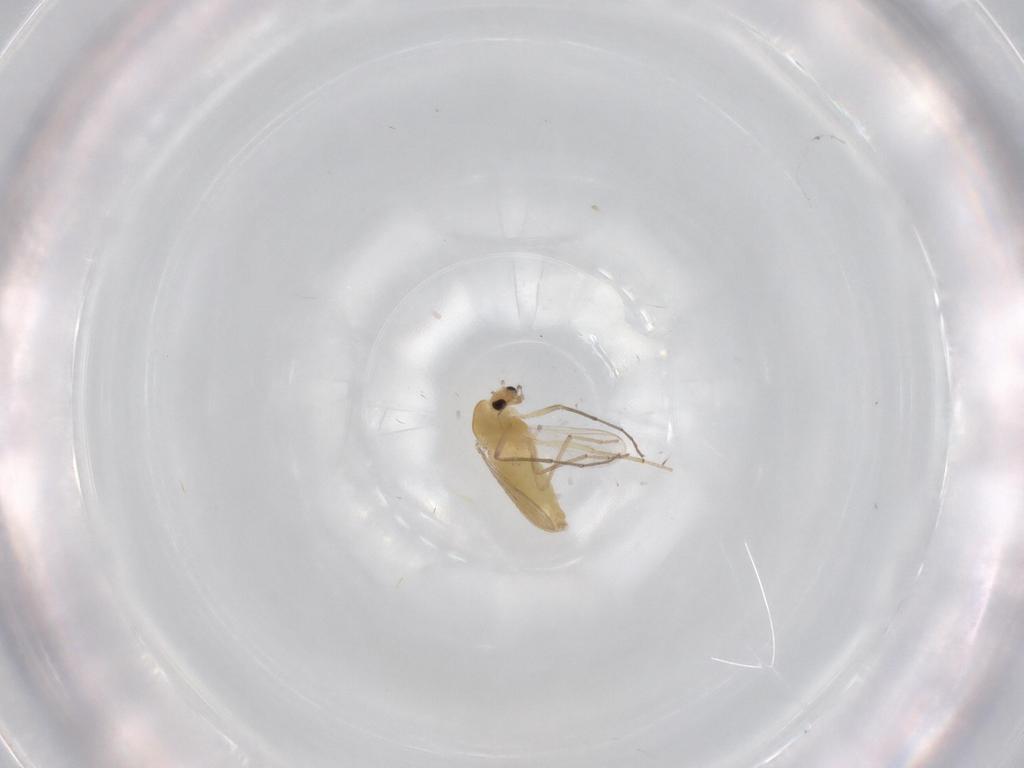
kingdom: Animalia
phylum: Arthropoda
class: Insecta
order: Diptera
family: Chironomidae
